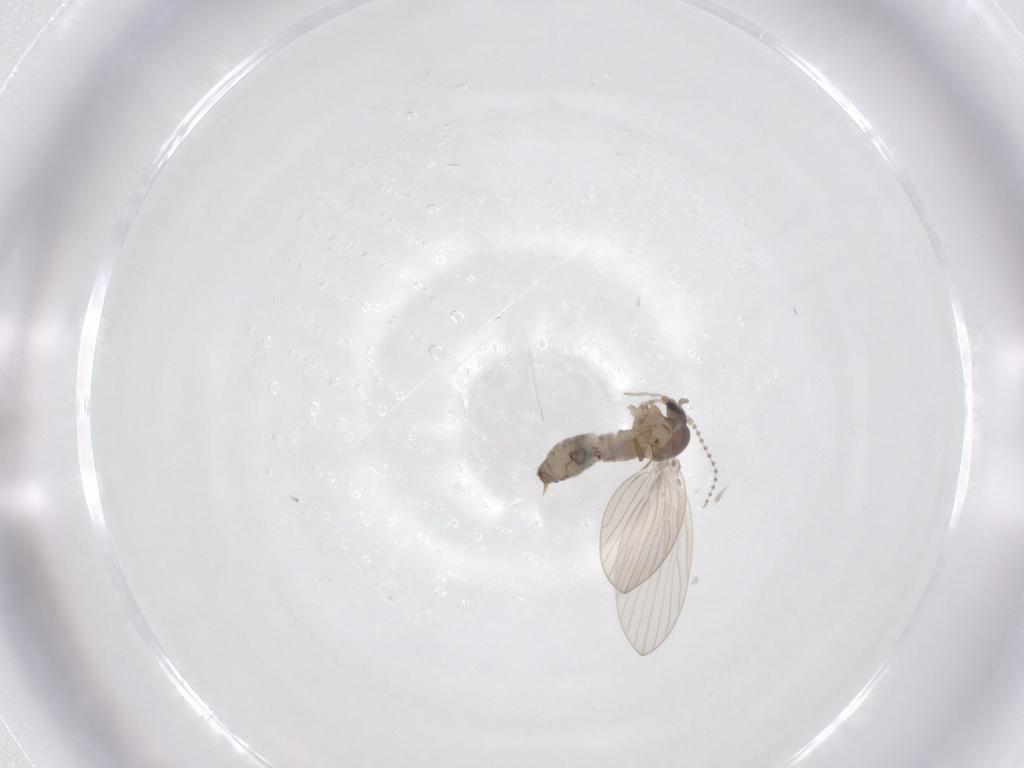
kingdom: Animalia
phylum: Arthropoda
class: Insecta
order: Diptera
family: Psychodidae
